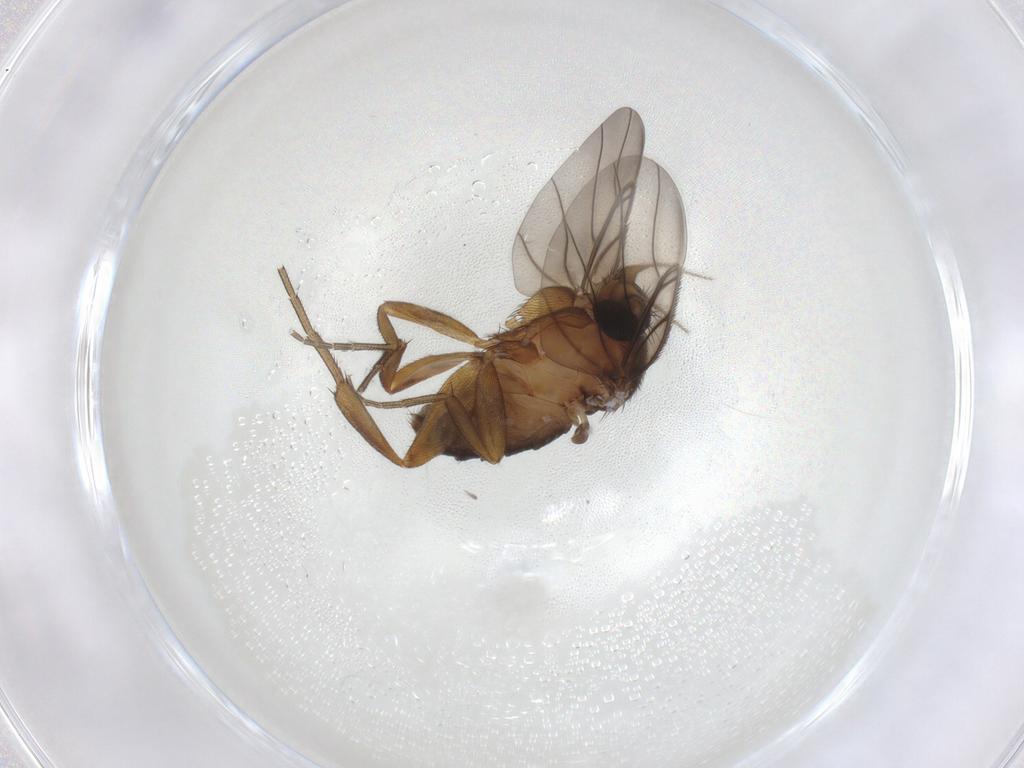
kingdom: Animalia
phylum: Arthropoda
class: Insecta
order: Diptera
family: Phoridae
